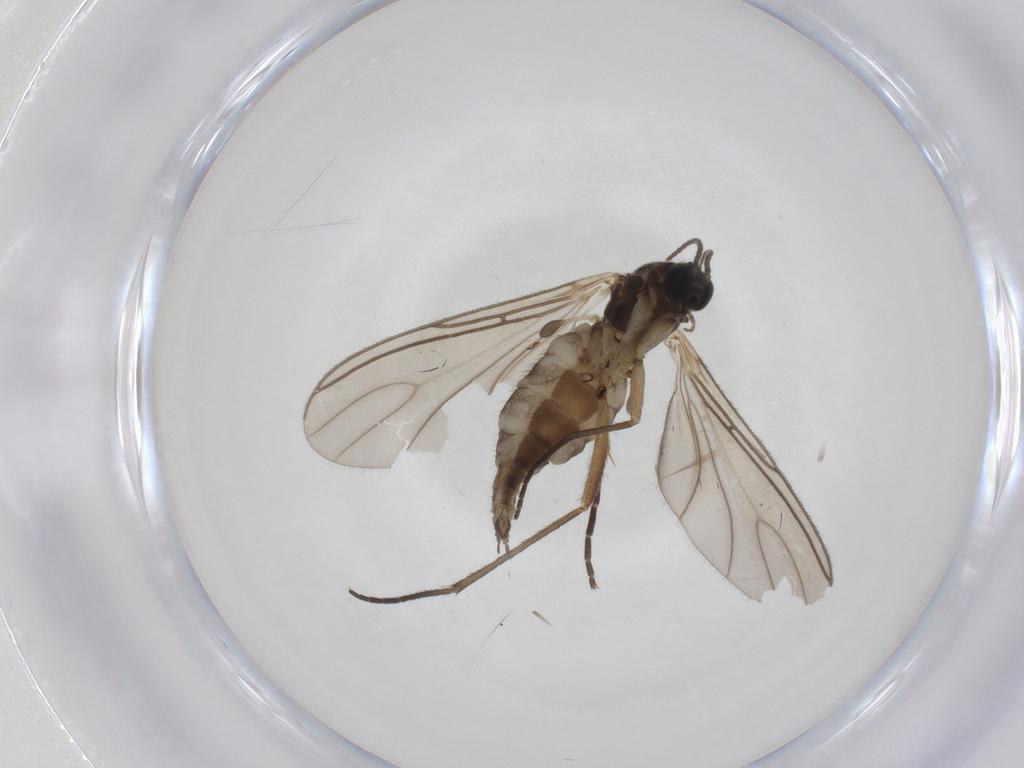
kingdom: Animalia
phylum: Arthropoda
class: Insecta
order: Diptera
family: Sciaridae
